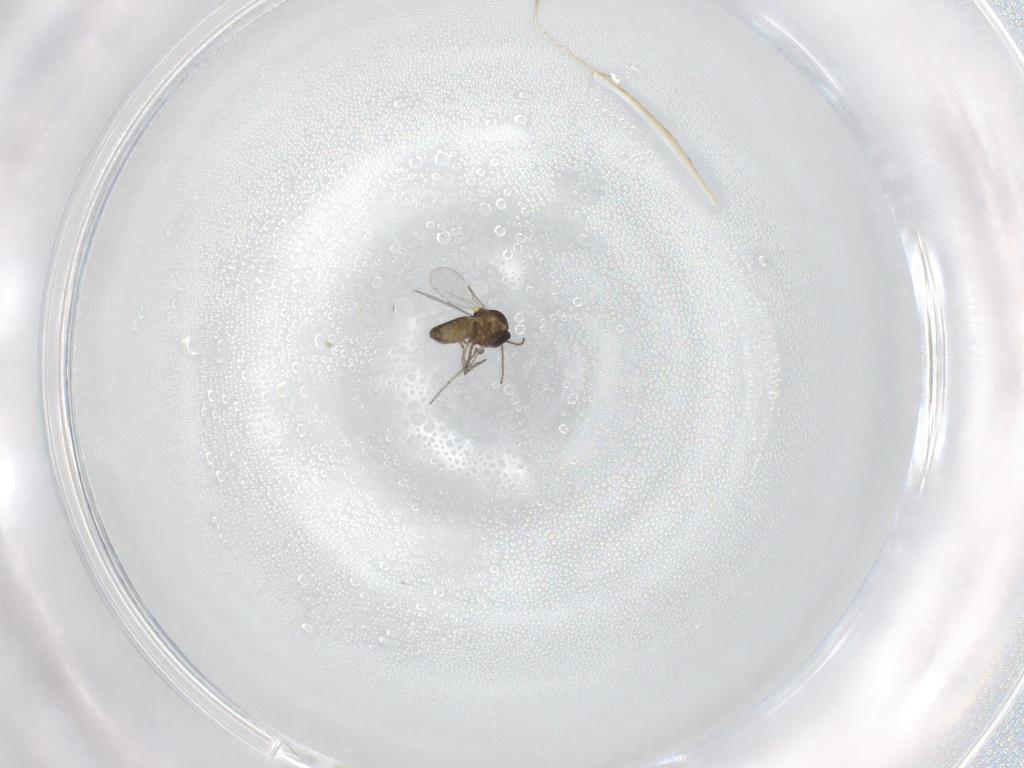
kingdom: Animalia
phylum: Arthropoda
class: Insecta
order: Diptera
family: Ceratopogonidae
